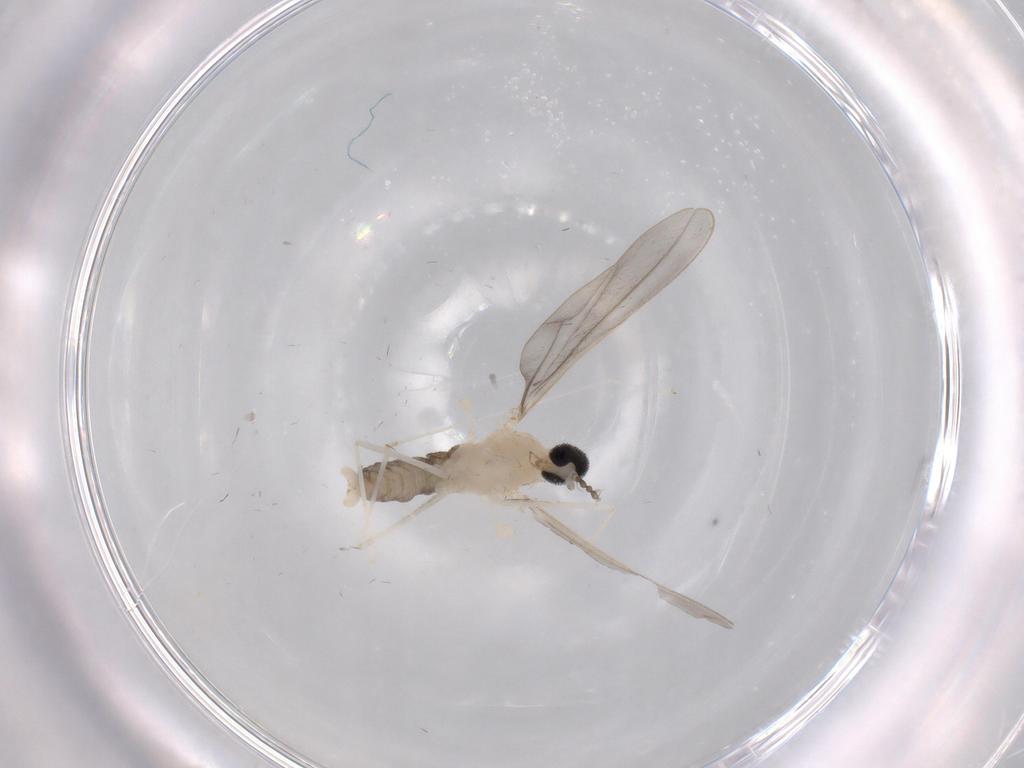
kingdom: Animalia
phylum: Arthropoda
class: Insecta
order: Diptera
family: Cecidomyiidae
